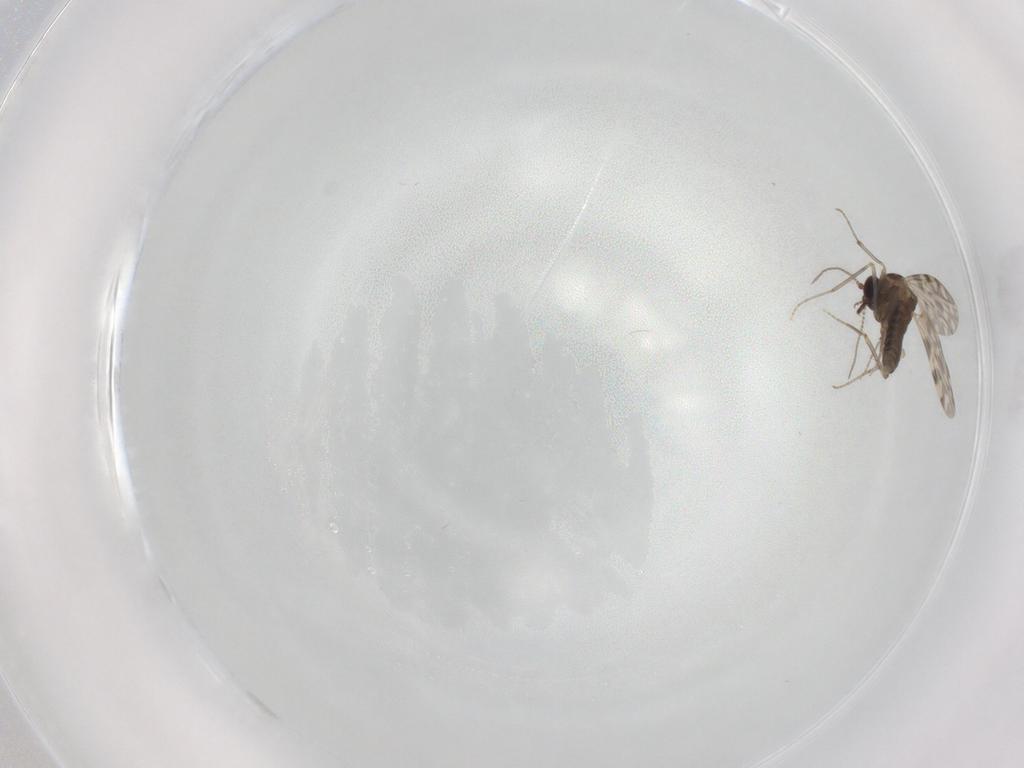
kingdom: Animalia
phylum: Arthropoda
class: Insecta
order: Diptera
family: Ceratopogonidae
